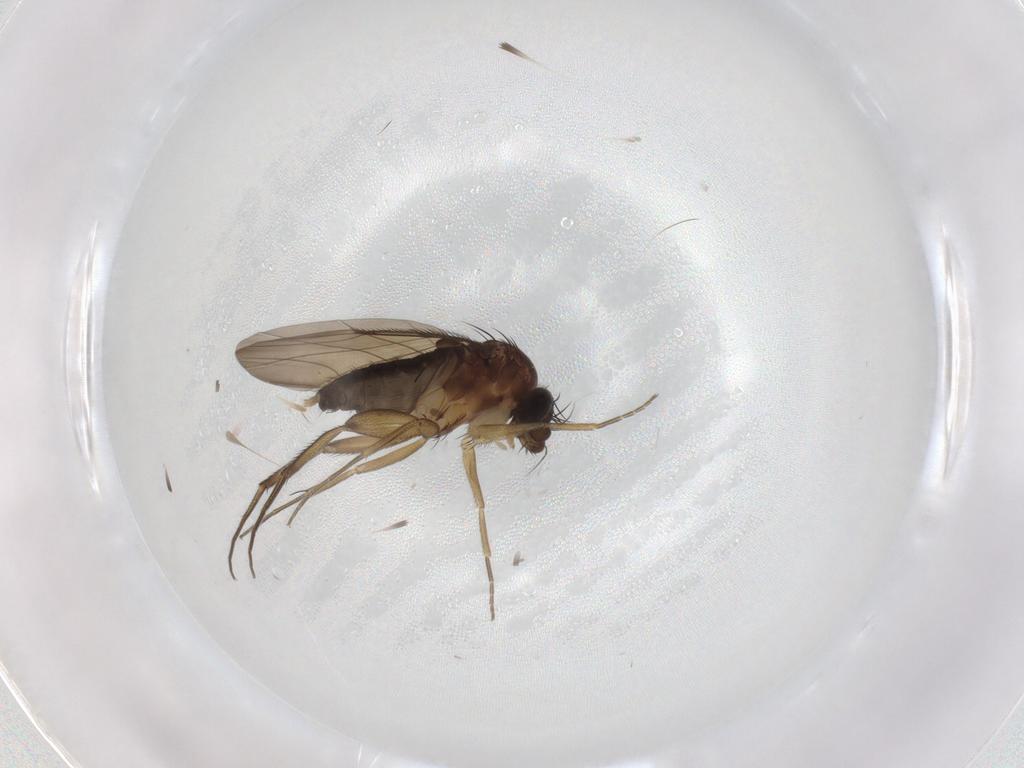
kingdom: Animalia
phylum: Arthropoda
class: Insecta
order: Diptera
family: Phoridae
